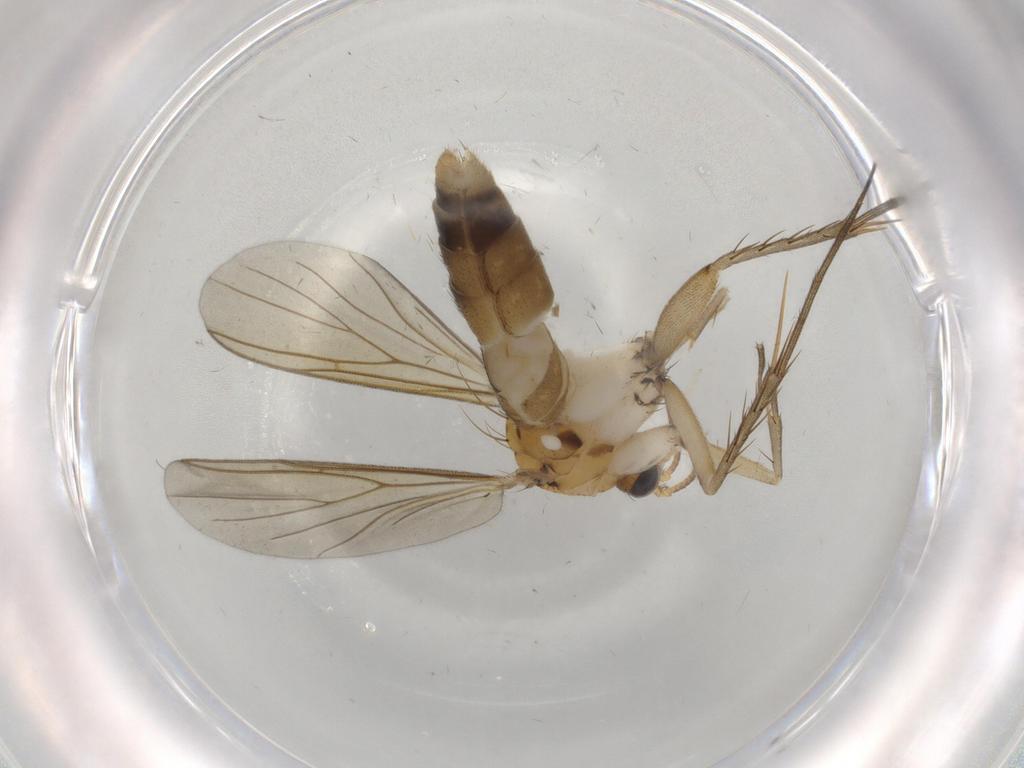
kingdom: Animalia
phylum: Arthropoda
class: Insecta
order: Diptera
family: Mycetophilidae
